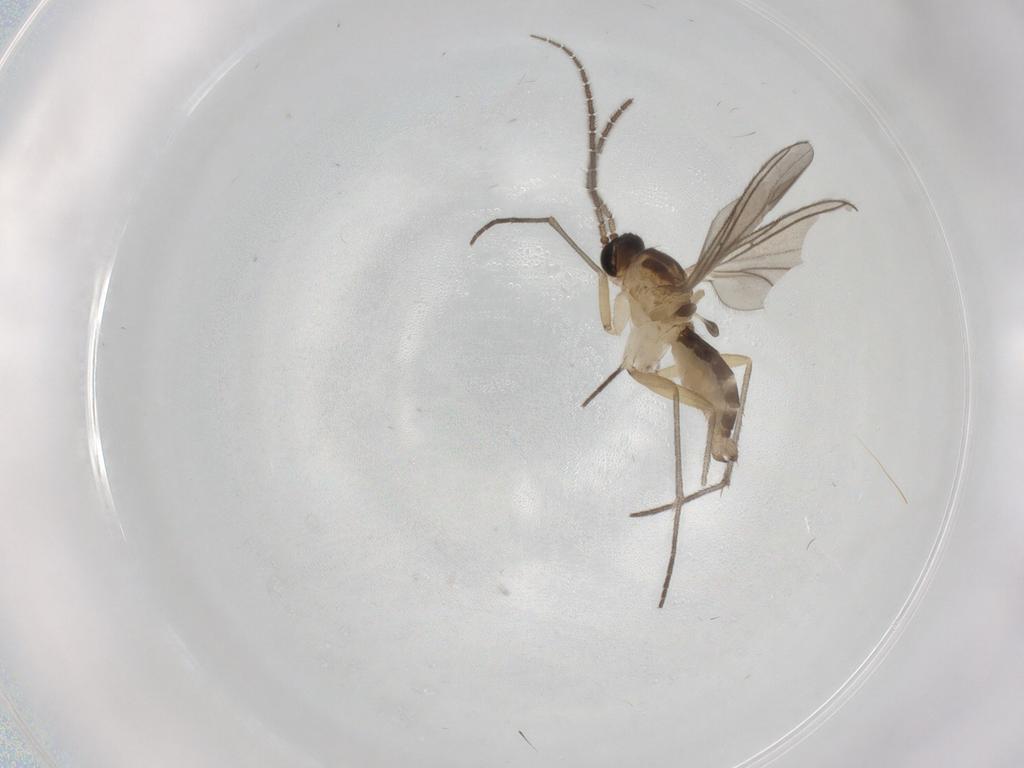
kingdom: Animalia
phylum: Arthropoda
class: Insecta
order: Diptera
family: Sciaridae
